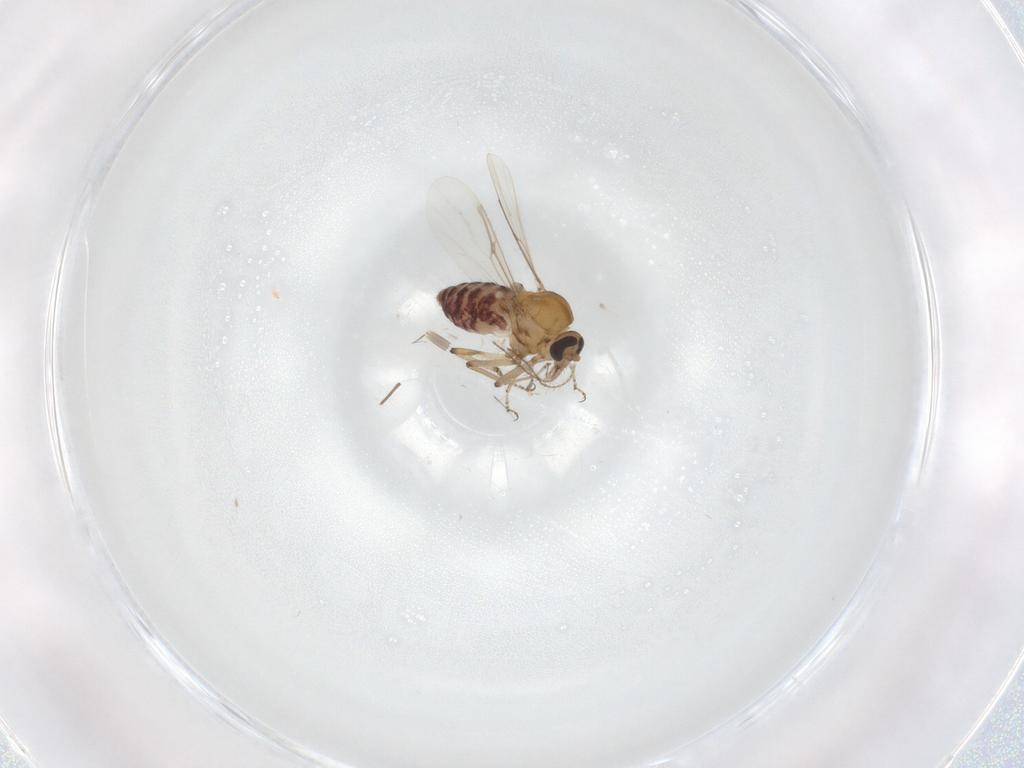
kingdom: Animalia
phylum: Arthropoda
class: Insecta
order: Diptera
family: Ceratopogonidae
